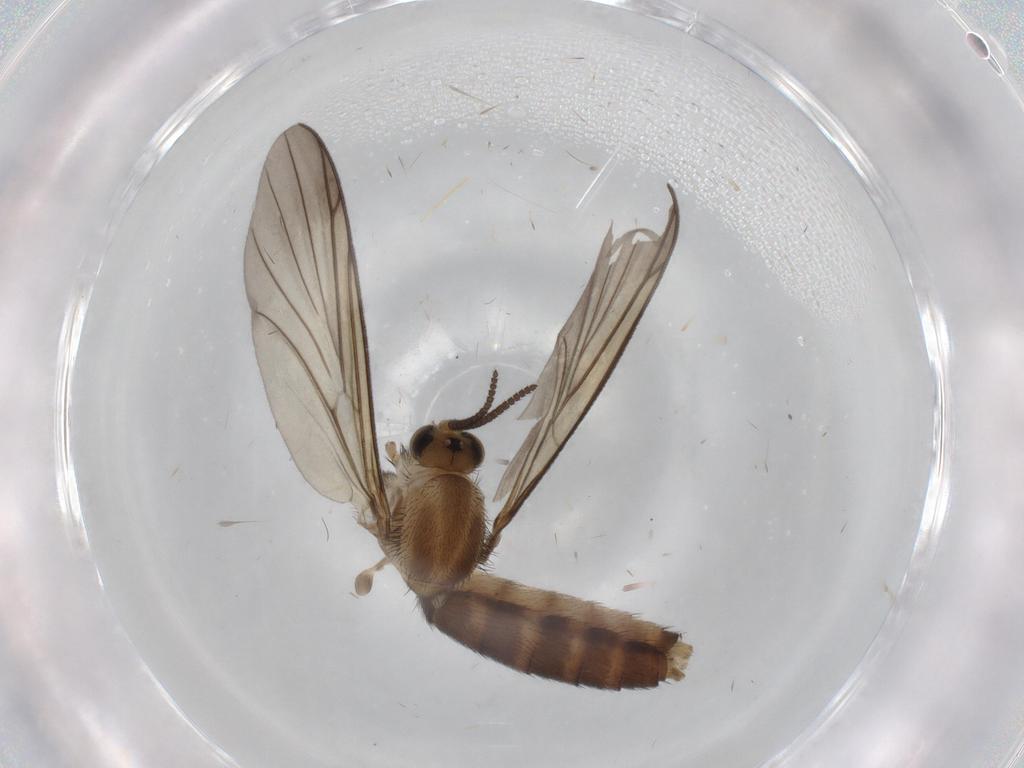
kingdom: Animalia
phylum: Arthropoda
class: Insecta
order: Diptera
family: Mycetophilidae
